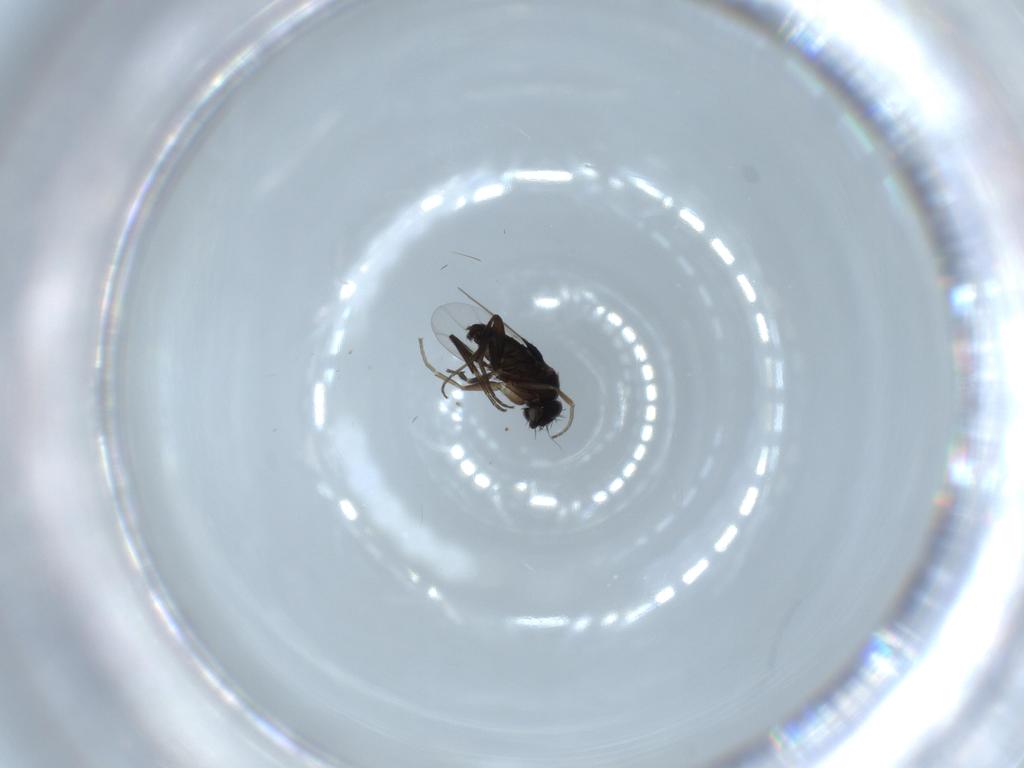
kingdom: Animalia
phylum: Arthropoda
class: Insecta
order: Diptera
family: Phoridae
